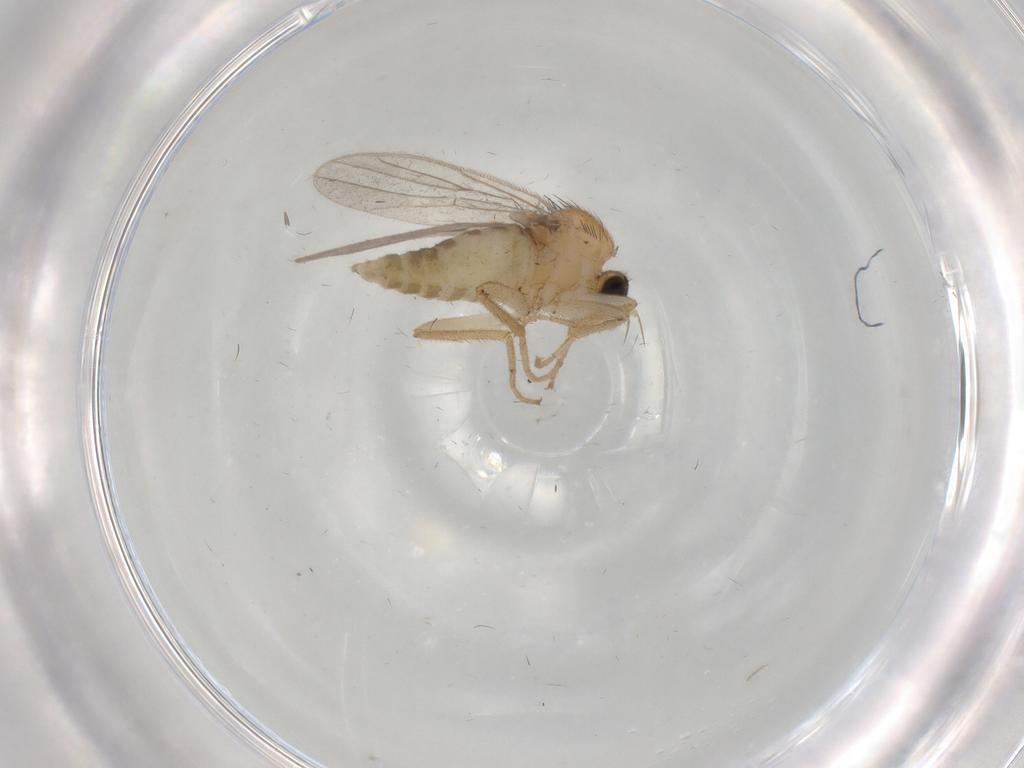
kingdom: Animalia
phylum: Arthropoda
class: Insecta
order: Diptera
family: Hybotidae
